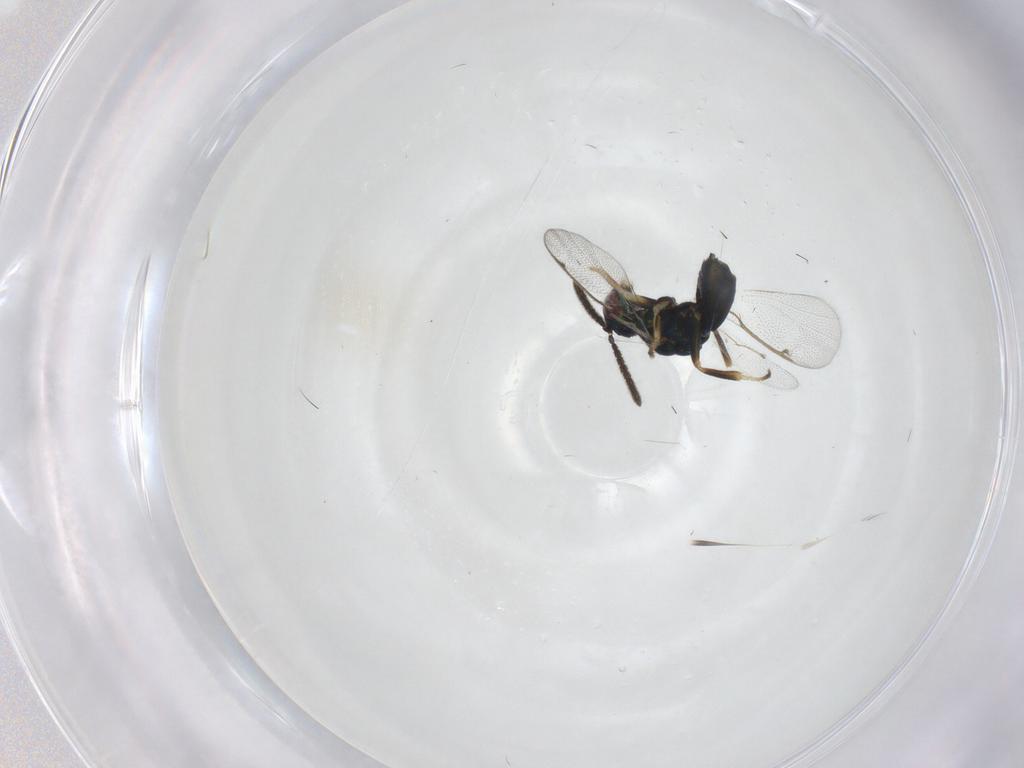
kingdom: Animalia
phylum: Arthropoda
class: Insecta
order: Hymenoptera
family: Torymidae
